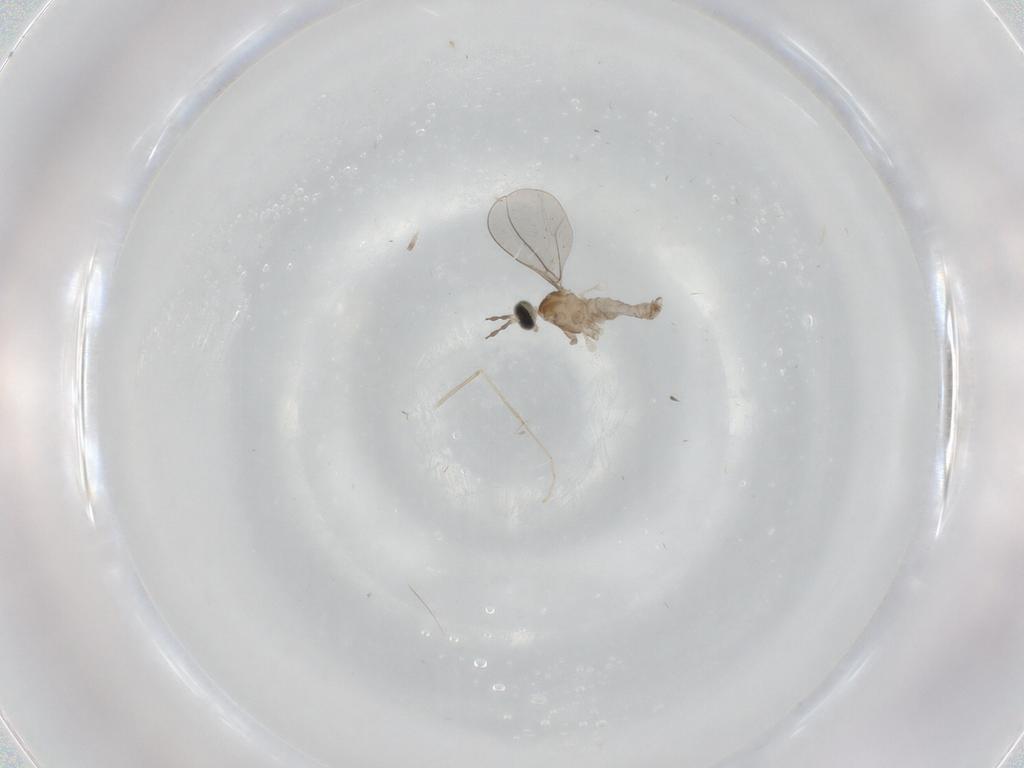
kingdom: Animalia
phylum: Arthropoda
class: Insecta
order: Diptera
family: Cecidomyiidae
